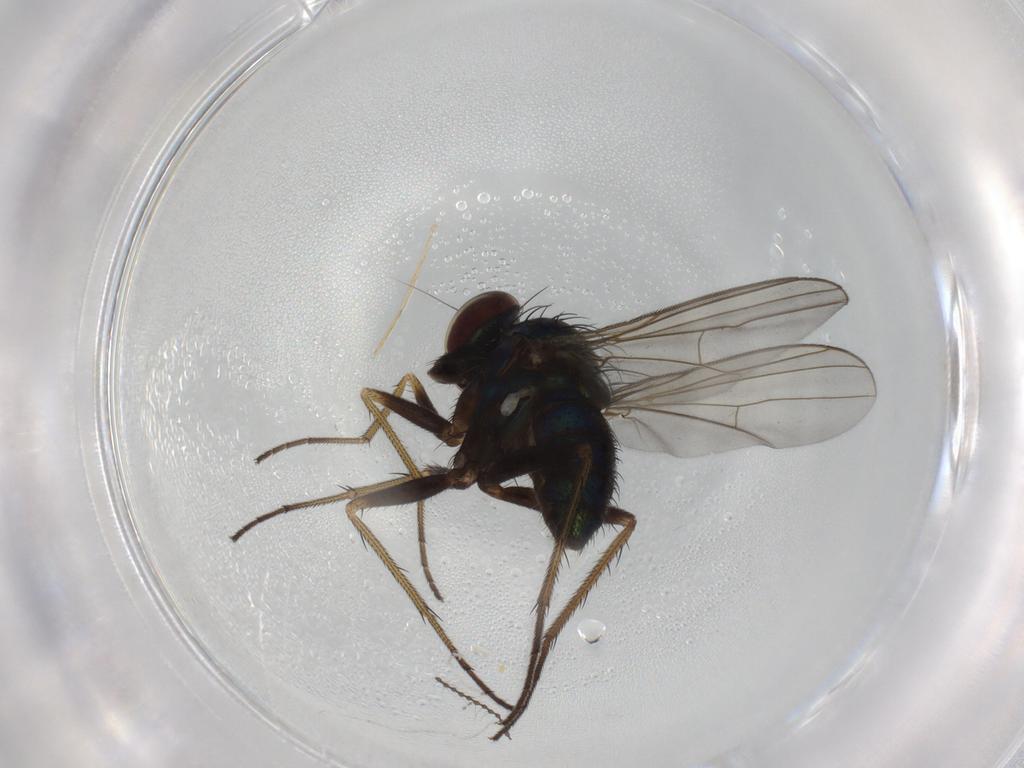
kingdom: Animalia
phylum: Arthropoda
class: Insecta
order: Diptera
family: Dolichopodidae
